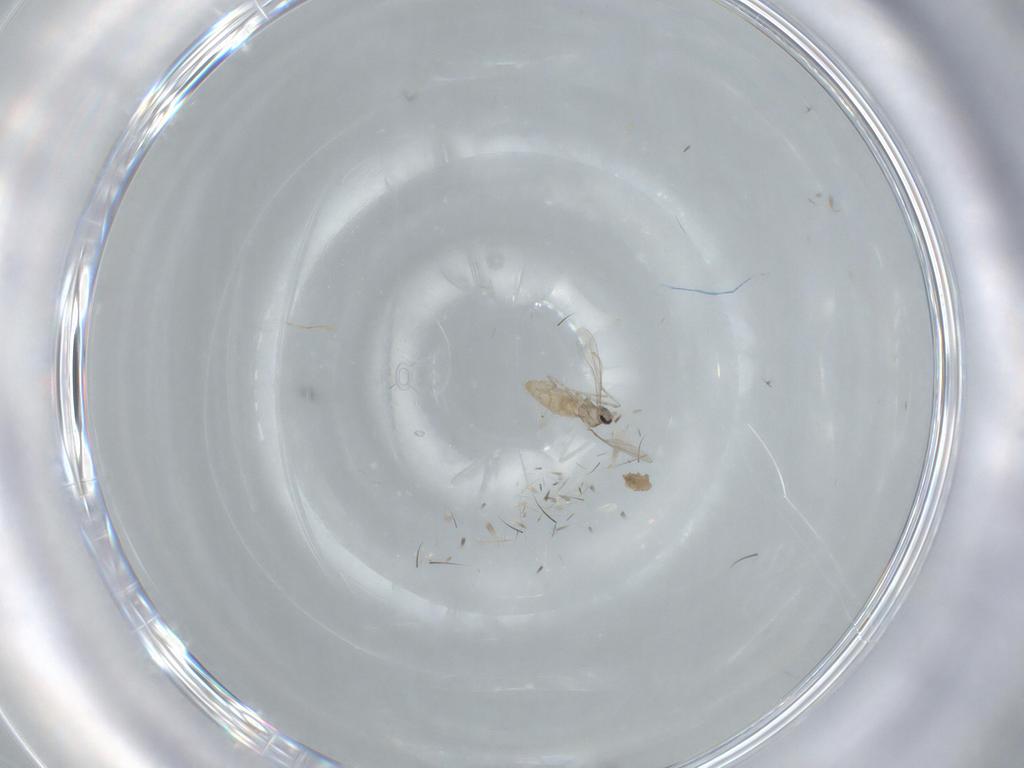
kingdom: Animalia
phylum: Arthropoda
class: Insecta
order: Diptera
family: Cecidomyiidae
